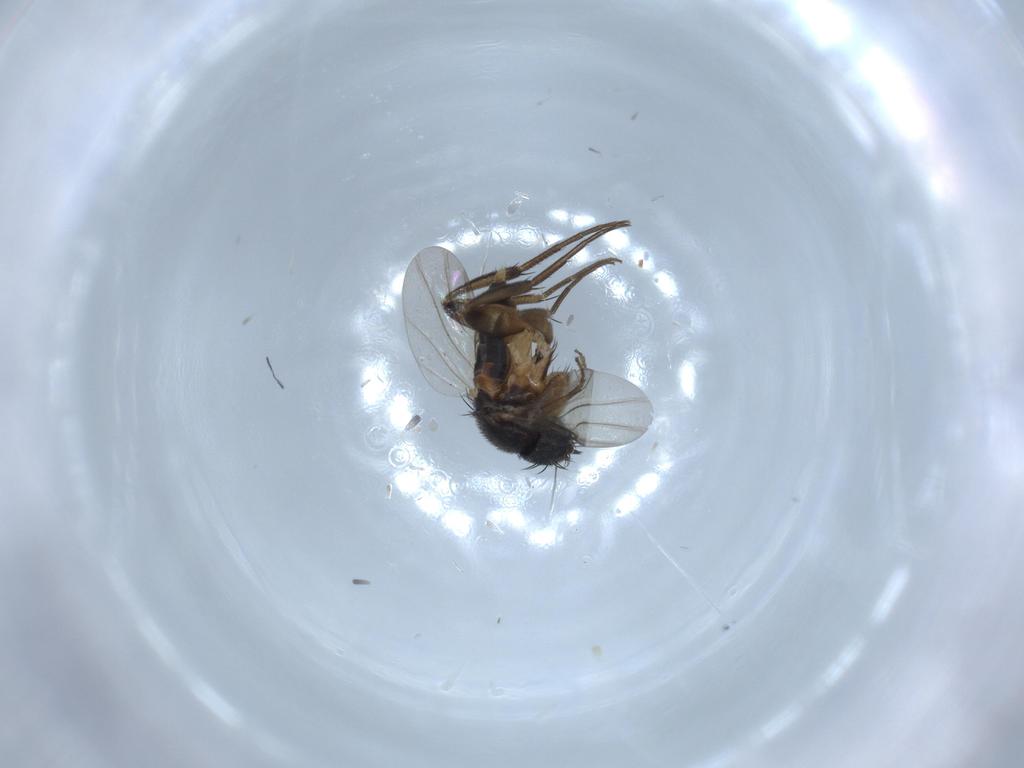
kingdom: Animalia
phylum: Arthropoda
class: Insecta
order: Diptera
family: Phoridae
